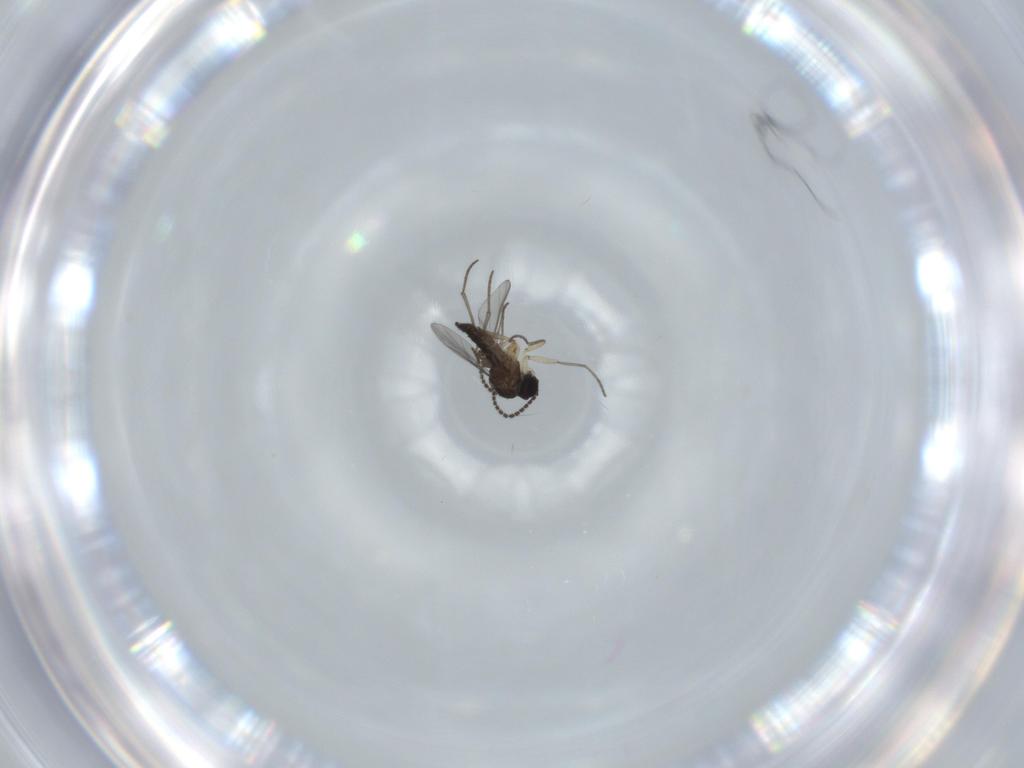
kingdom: Animalia
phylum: Arthropoda
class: Insecta
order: Diptera
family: Sciaridae
